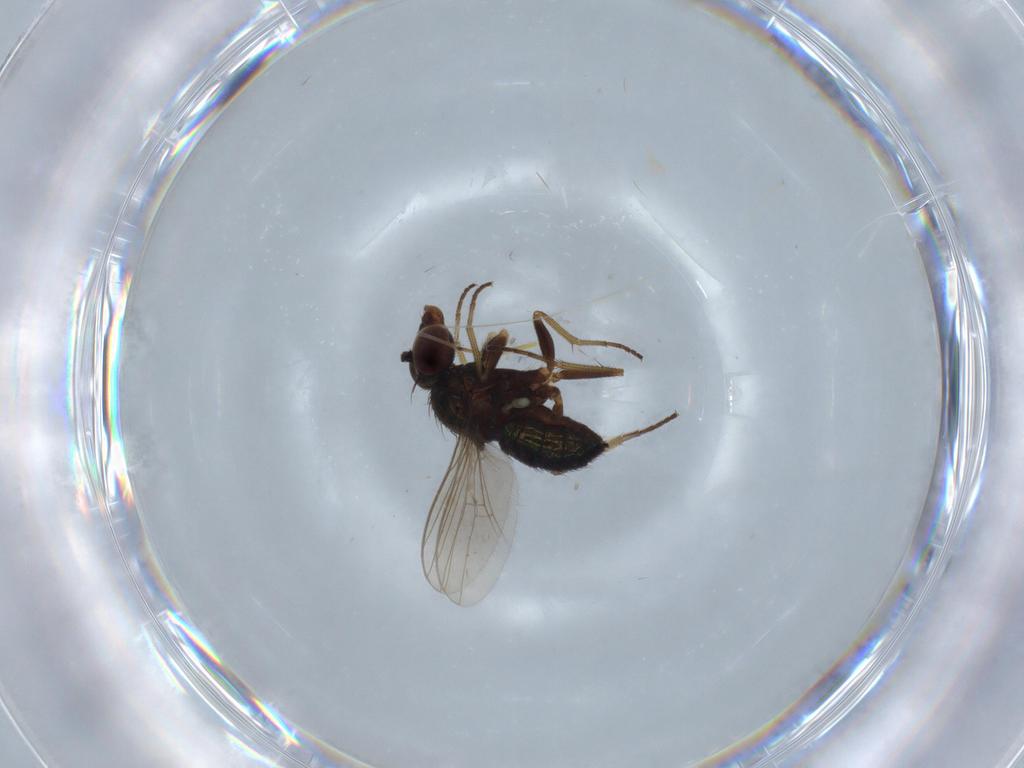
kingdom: Animalia
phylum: Arthropoda
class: Insecta
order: Diptera
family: Dolichopodidae
